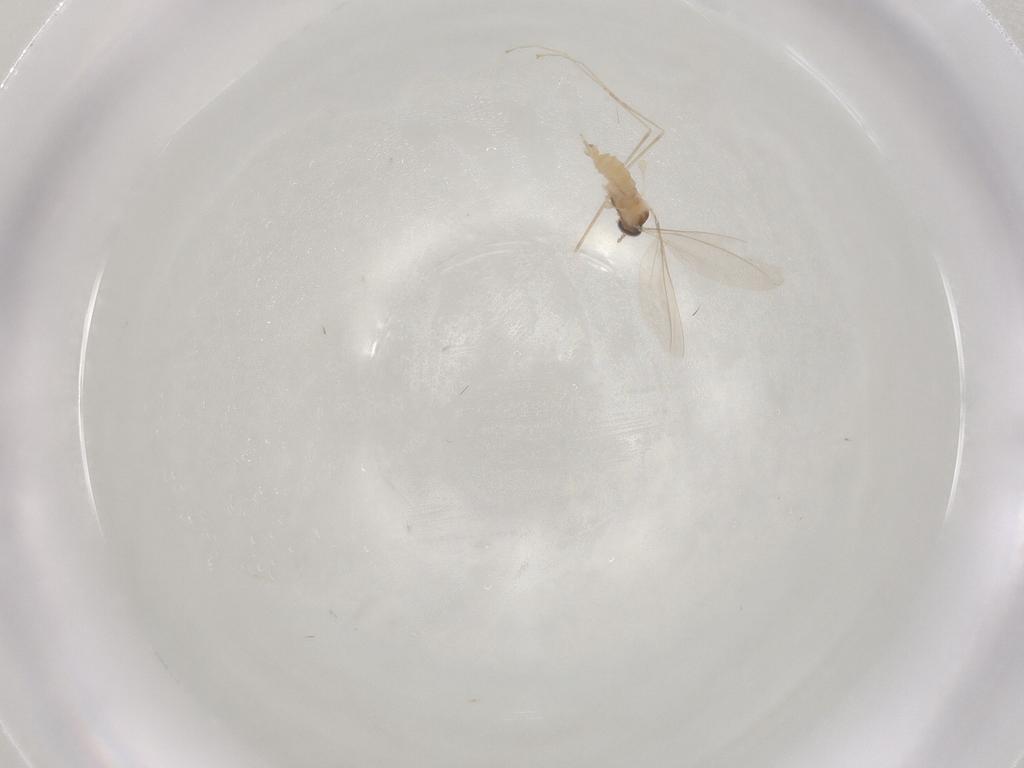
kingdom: Animalia
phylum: Arthropoda
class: Insecta
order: Diptera
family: Cecidomyiidae
